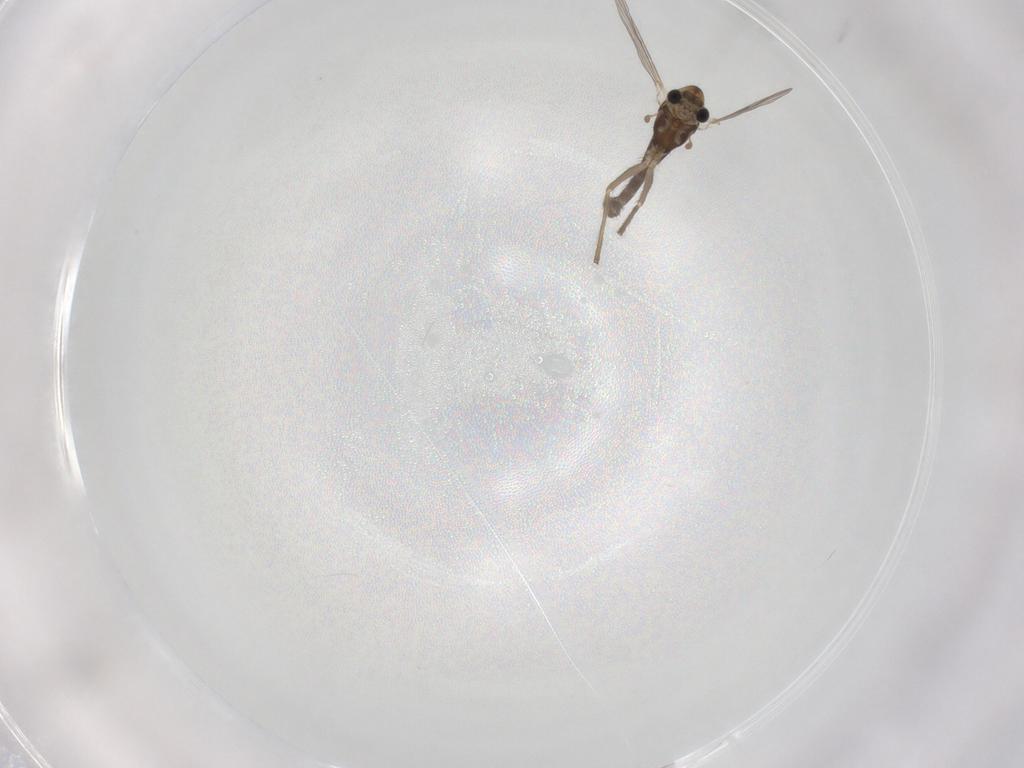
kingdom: Animalia
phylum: Arthropoda
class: Insecta
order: Diptera
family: Chironomidae
